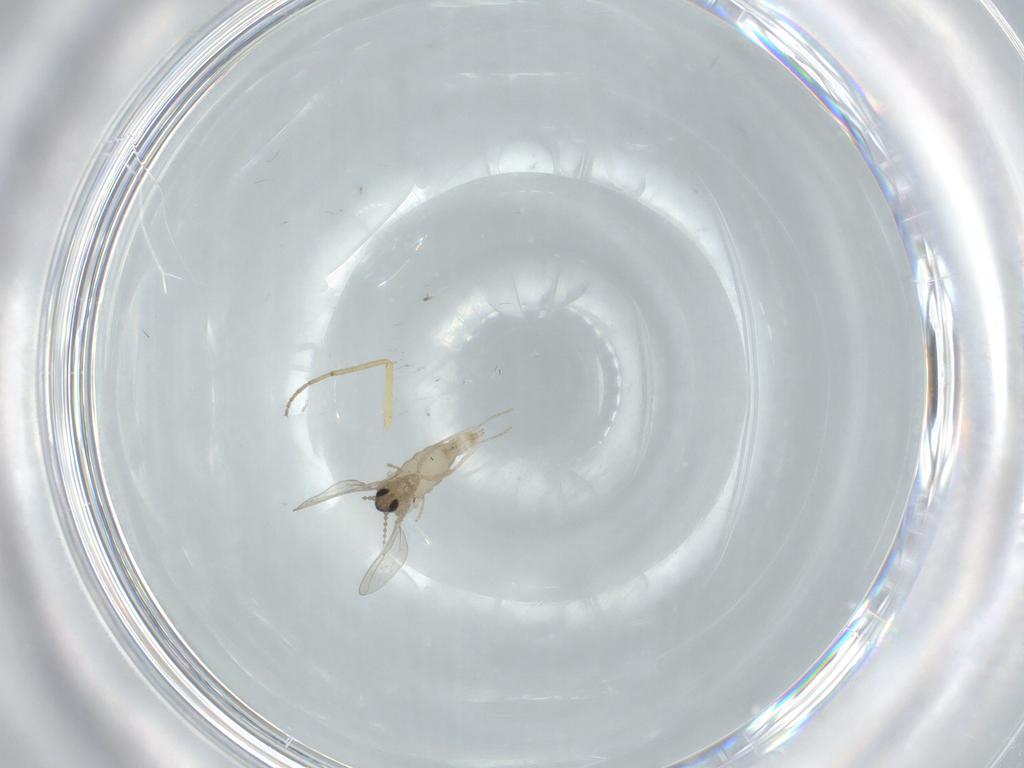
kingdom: Animalia
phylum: Arthropoda
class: Insecta
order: Diptera
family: Cecidomyiidae
